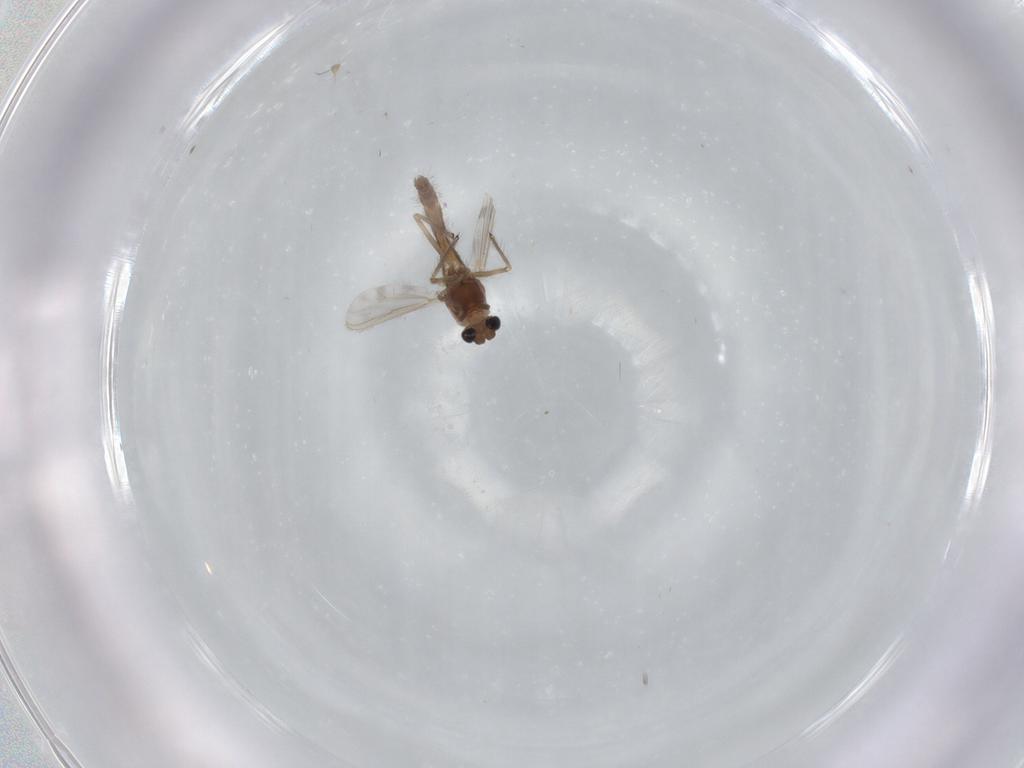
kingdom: Animalia
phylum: Arthropoda
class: Insecta
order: Diptera
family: Chironomidae
